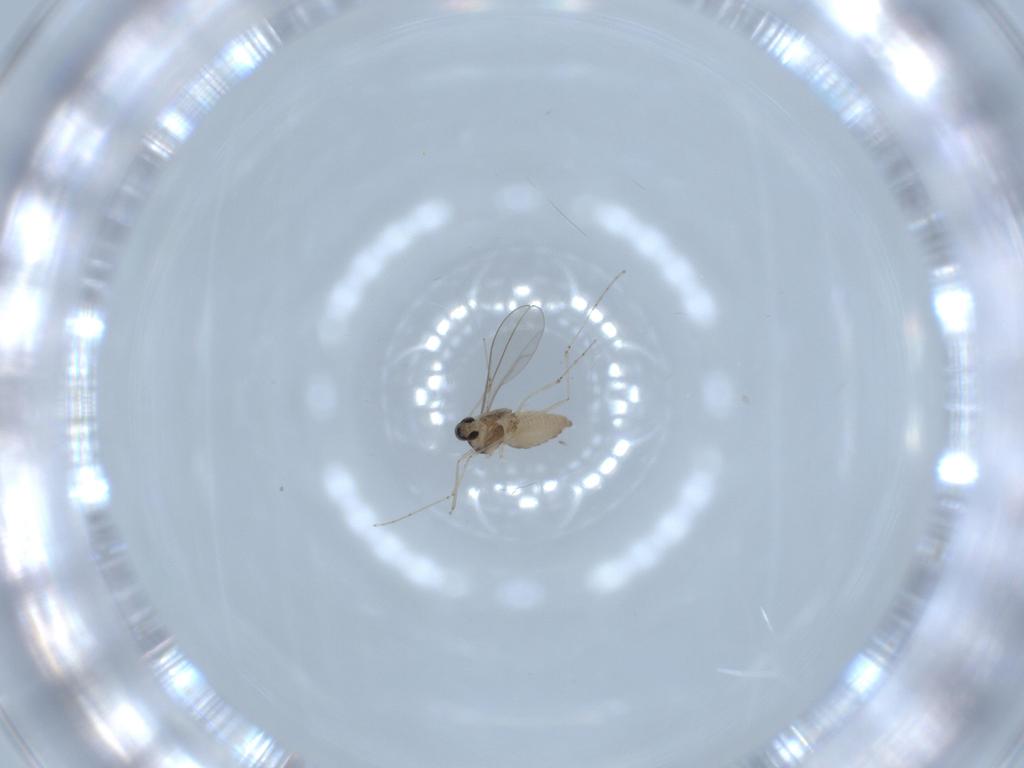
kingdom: Animalia
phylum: Arthropoda
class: Insecta
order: Diptera
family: Cecidomyiidae
